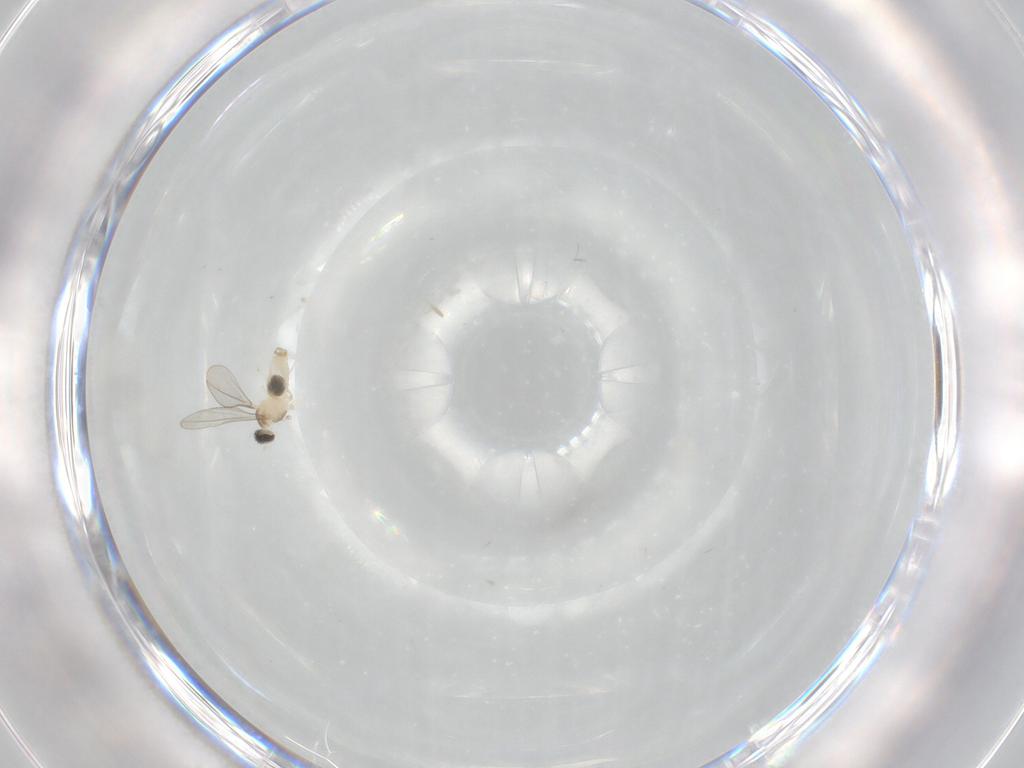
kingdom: Animalia
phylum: Arthropoda
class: Insecta
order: Diptera
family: Cecidomyiidae
